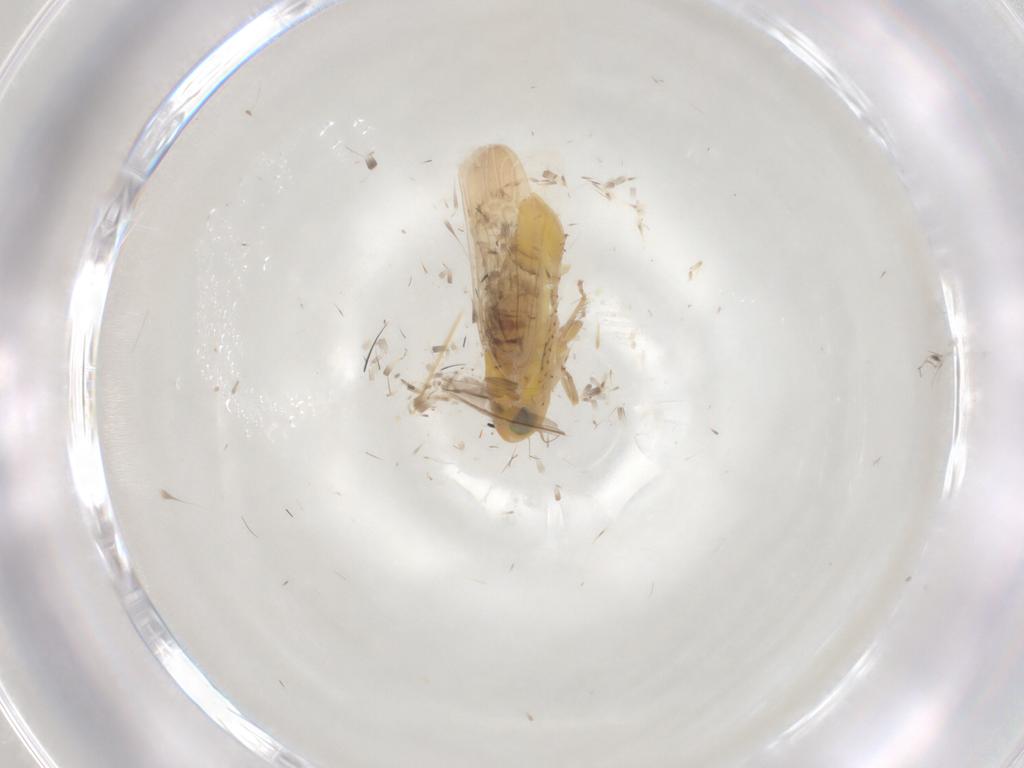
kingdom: Animalia
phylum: Arthropoda
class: Insecta
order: Hemiptera
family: Cicadellidae
